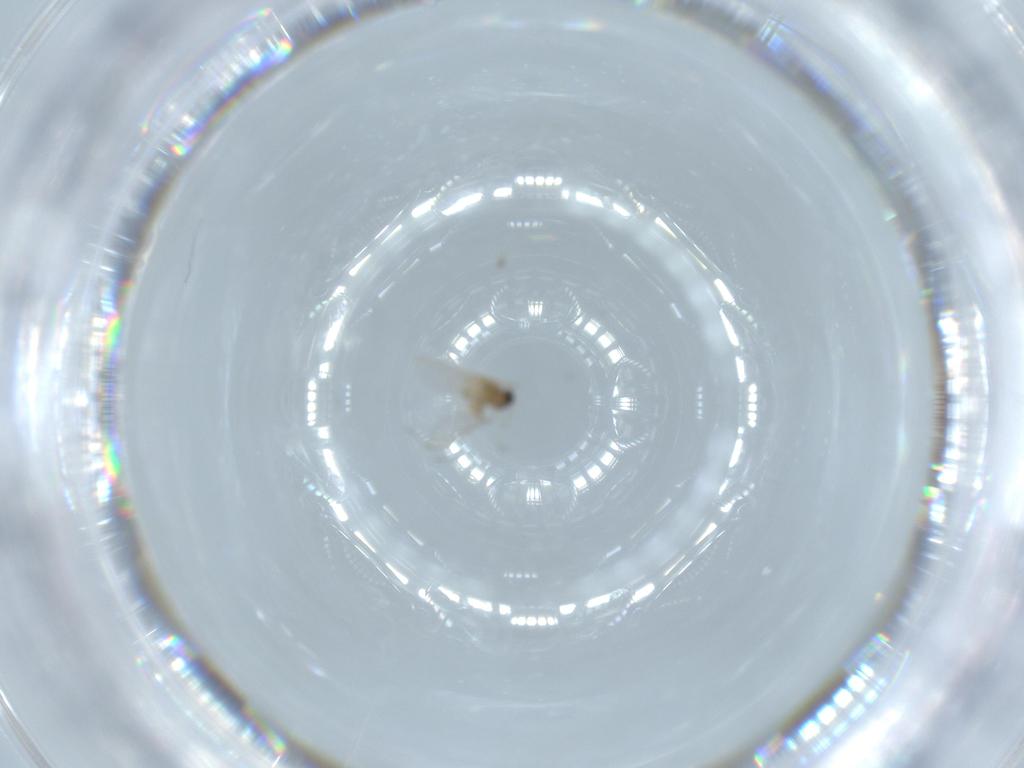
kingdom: Animalia
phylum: Arthropoda
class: Insecta
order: Diptera
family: Cecidomyiidae
